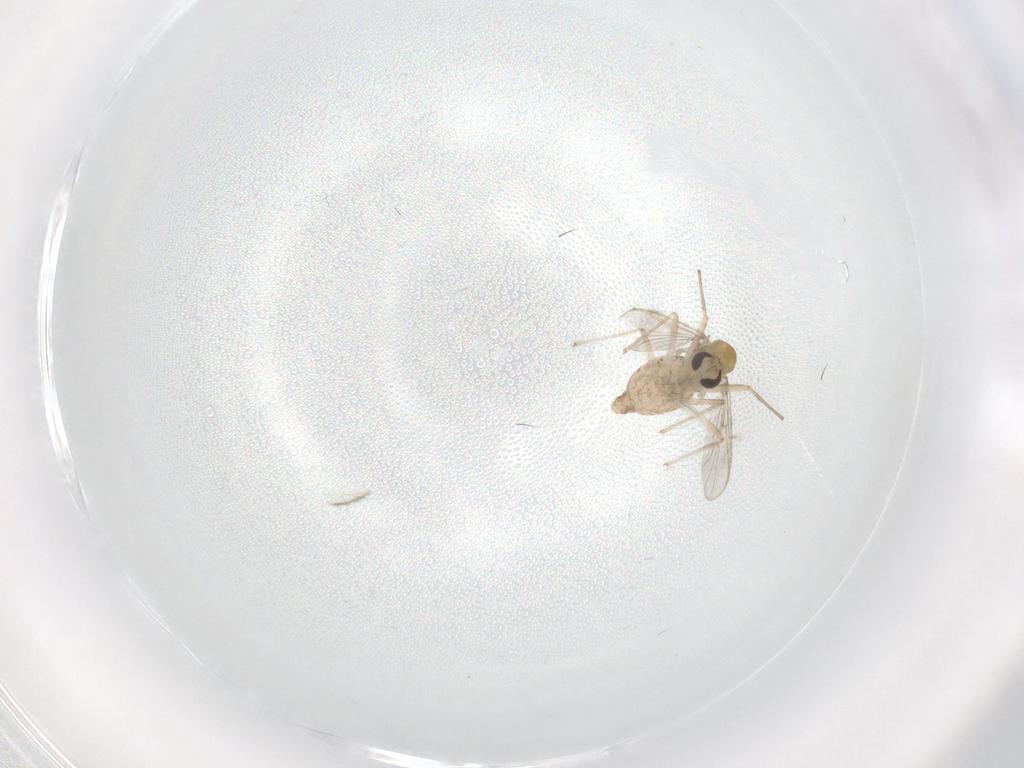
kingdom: Animalia
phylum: Arthropoda
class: Insecta
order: Diptera
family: Chironomidae
